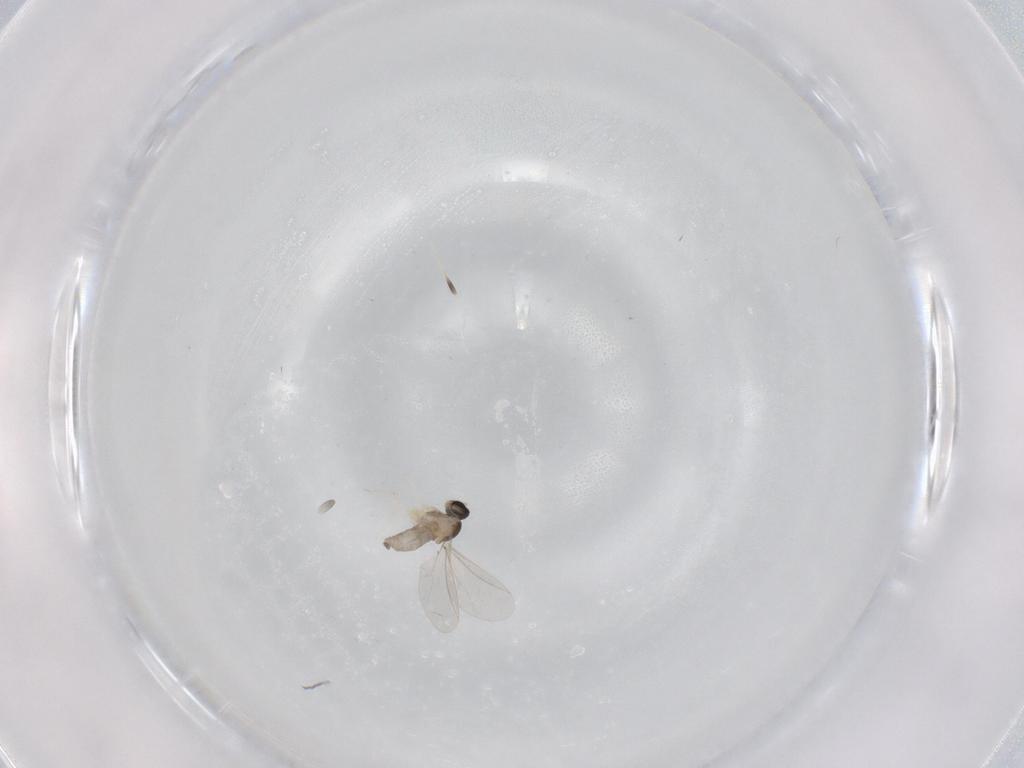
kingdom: Animalia
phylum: Arthropoda
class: Insecta
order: Diptera
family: Cecidomyiidae
